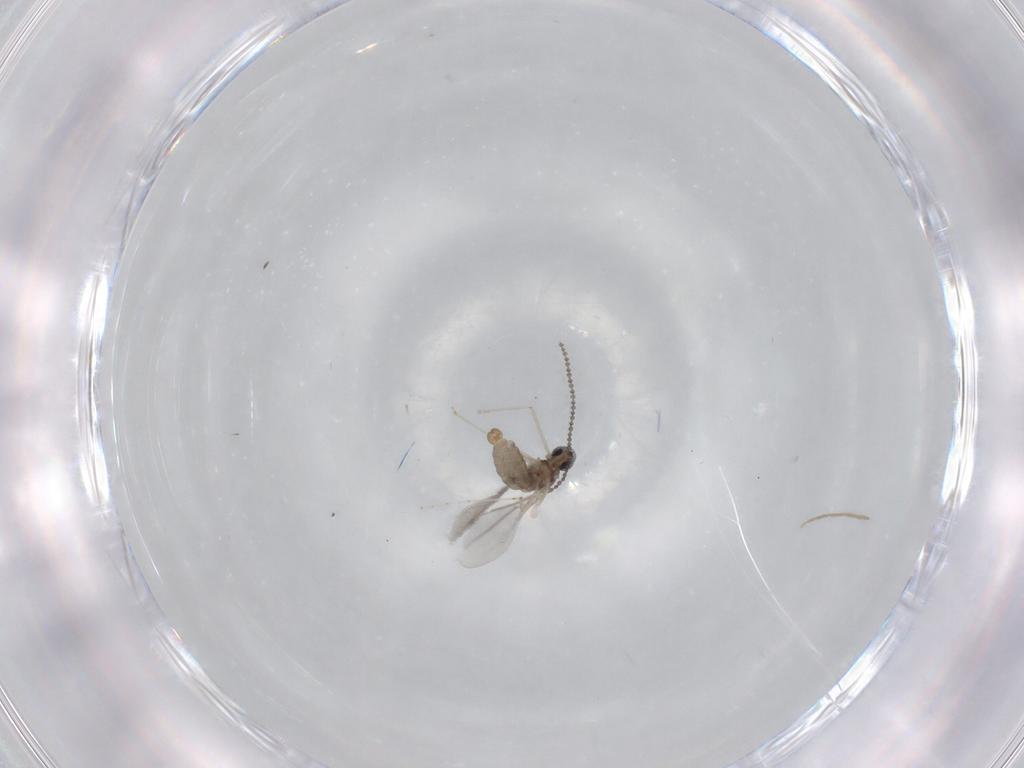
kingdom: Animalia
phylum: Arthropoda
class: Insecta
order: Diptera
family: Cecidomyiidae
